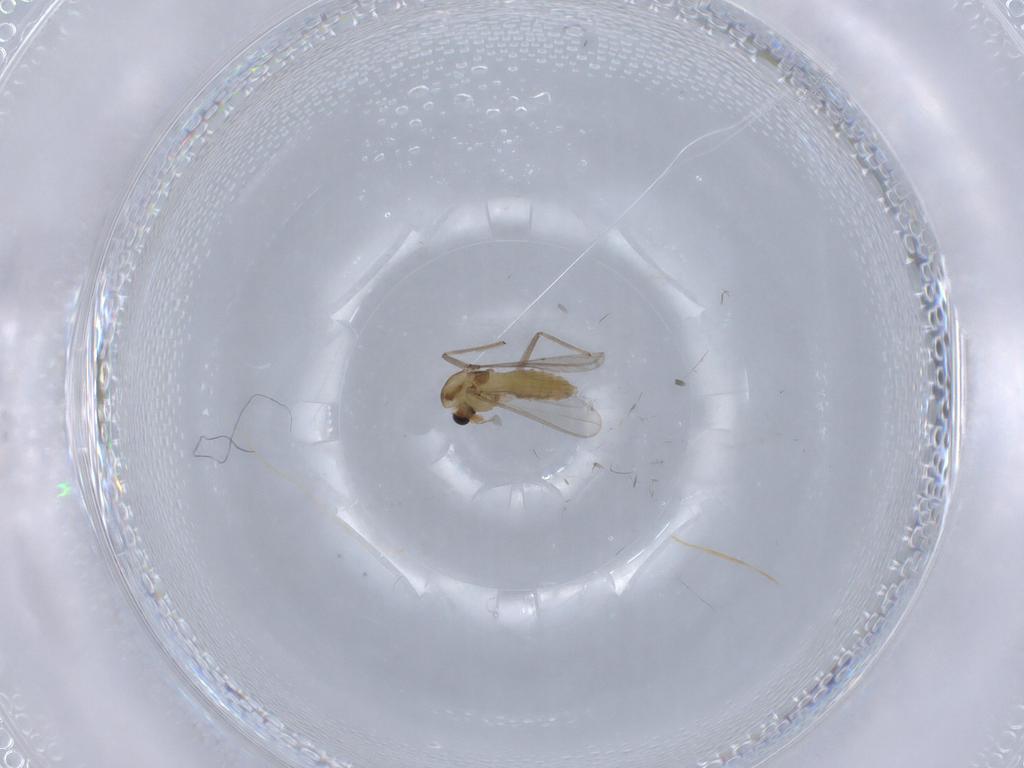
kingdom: Animalia
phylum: Arthropoda
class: Insecta
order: Diptera
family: Chironomidae
